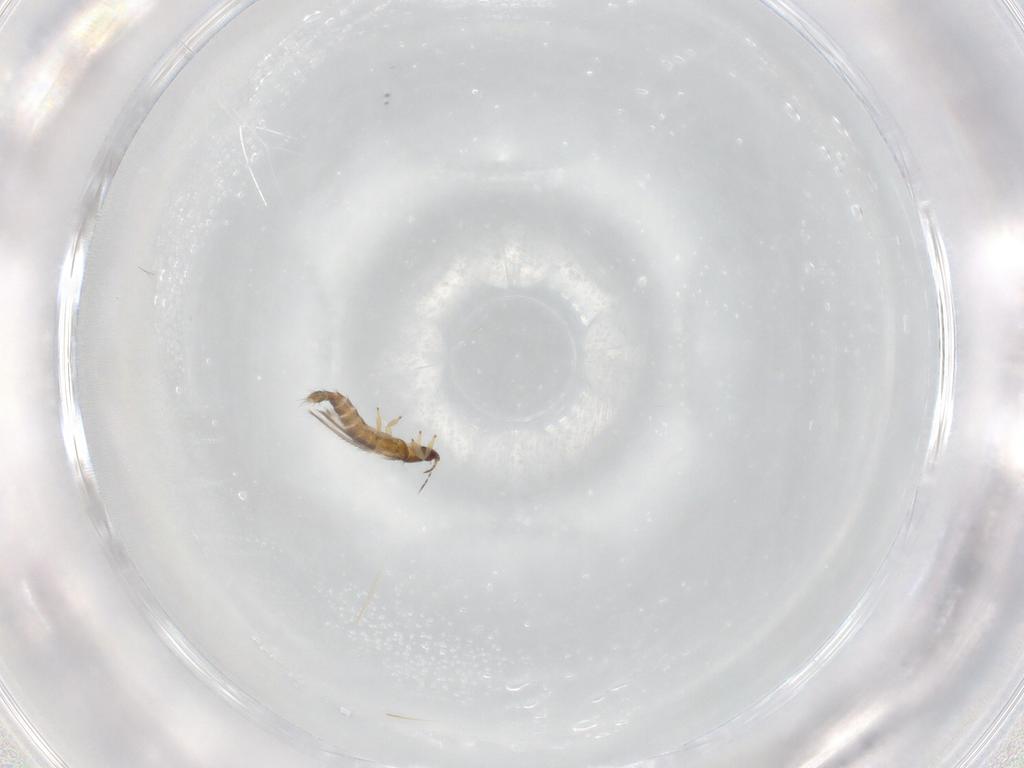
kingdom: Animalia
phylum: Arthropoda
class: Insecta
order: Thysanoptera
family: Thripidae
